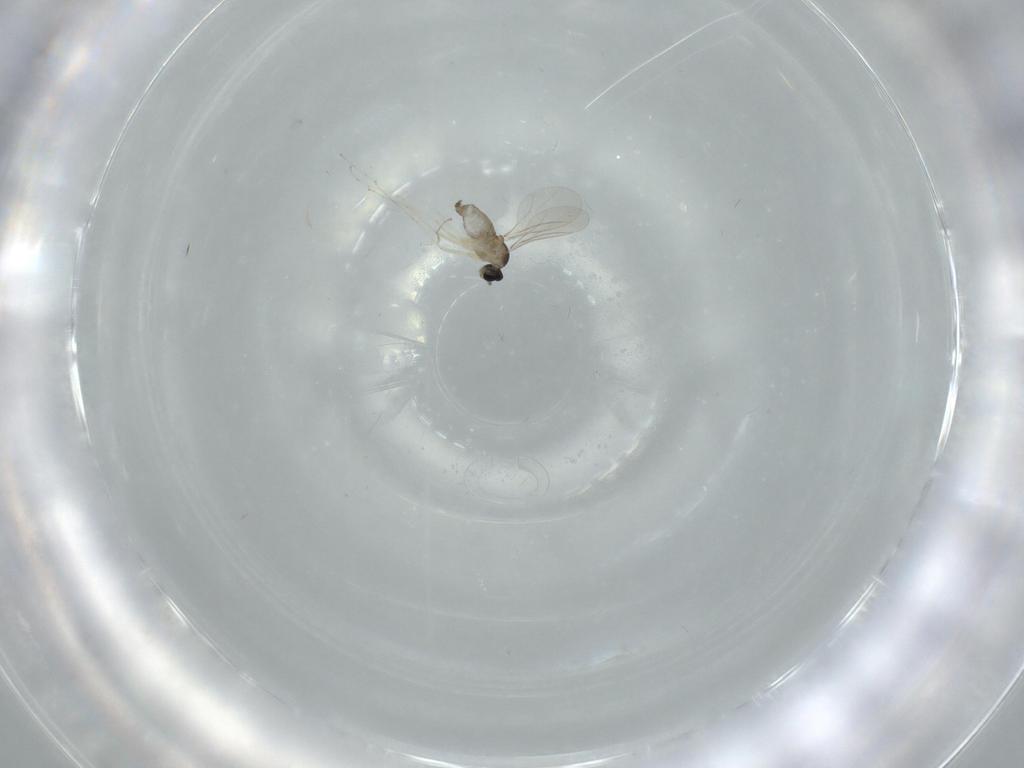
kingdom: Animalia
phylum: Arthropoda
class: Insecta
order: Diptera
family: Cecidomyiidae
